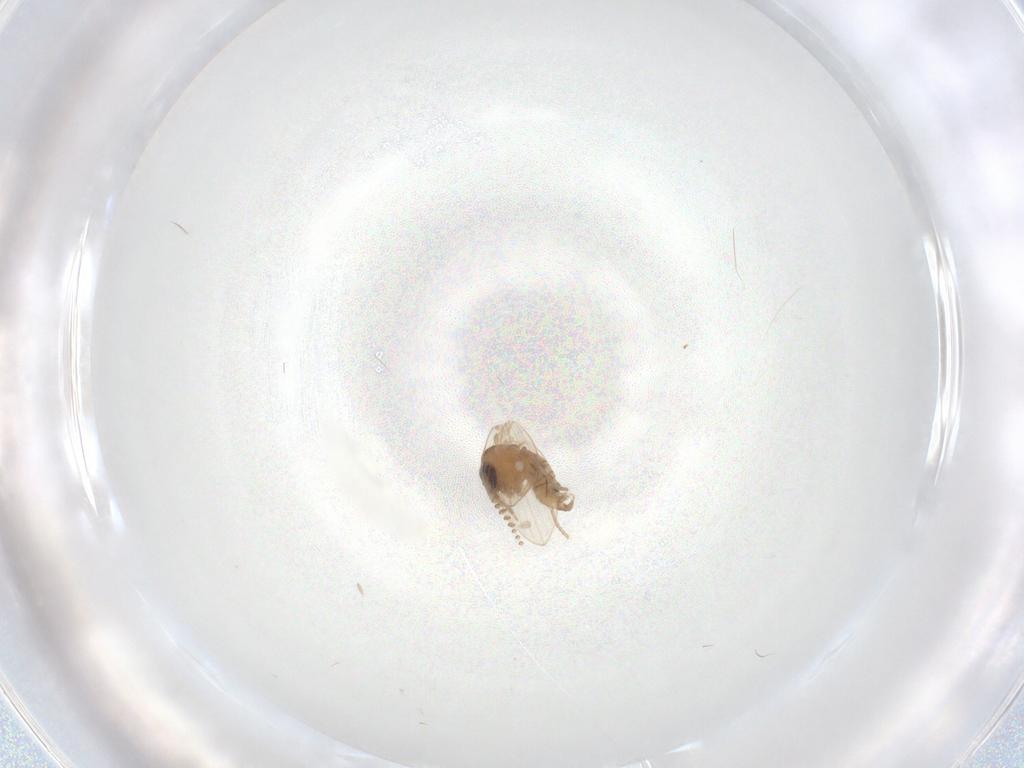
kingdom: Animalia
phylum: Arthropoda
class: Insecta
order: Diptera
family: Psychodidae
